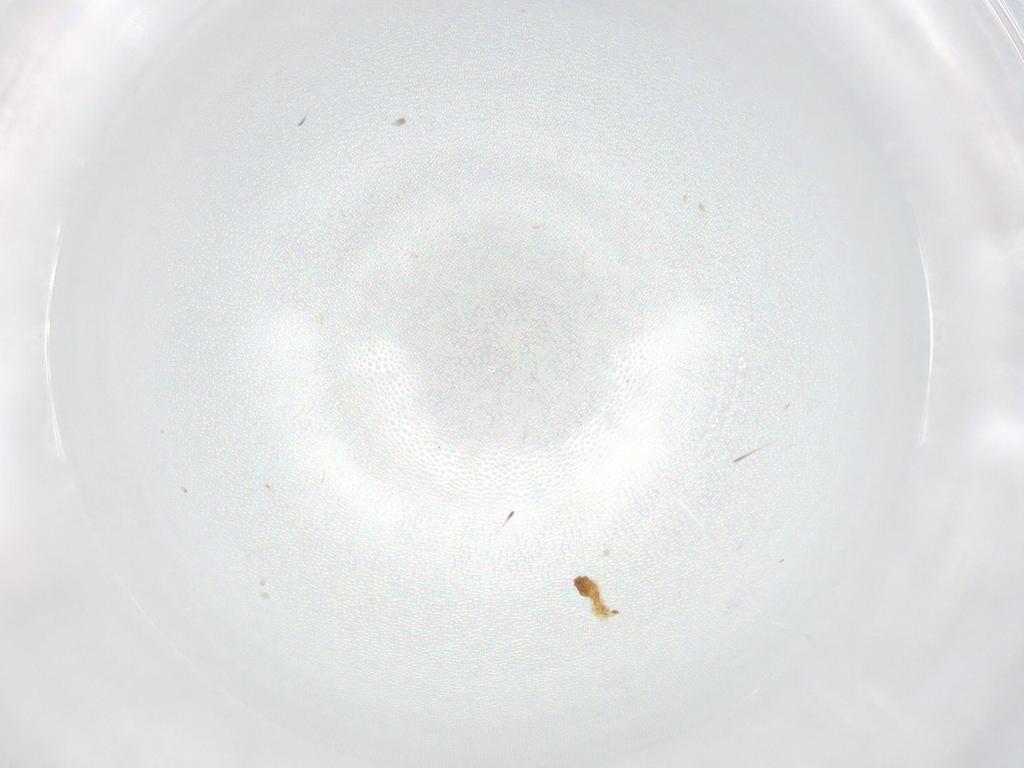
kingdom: Animalia
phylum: Arthropoda
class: Insecta
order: Diptera
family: Cecidomyiidae
